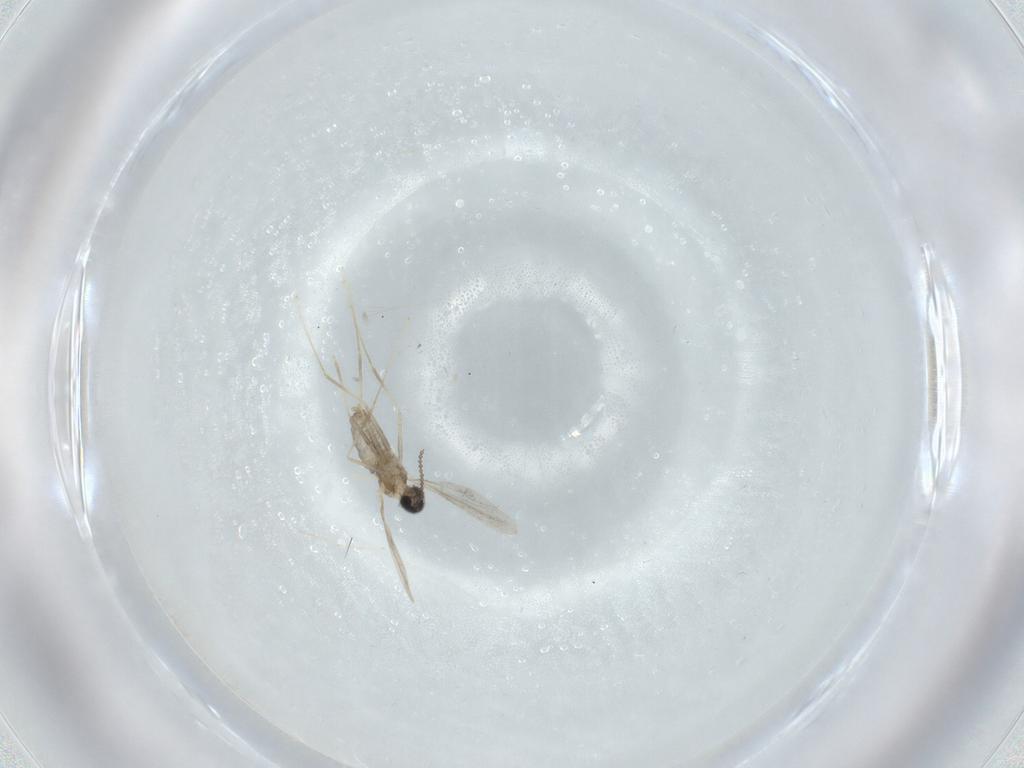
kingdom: Animalia
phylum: Arthropoda
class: Insecta
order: Diptera
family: Cecidomyiidae
